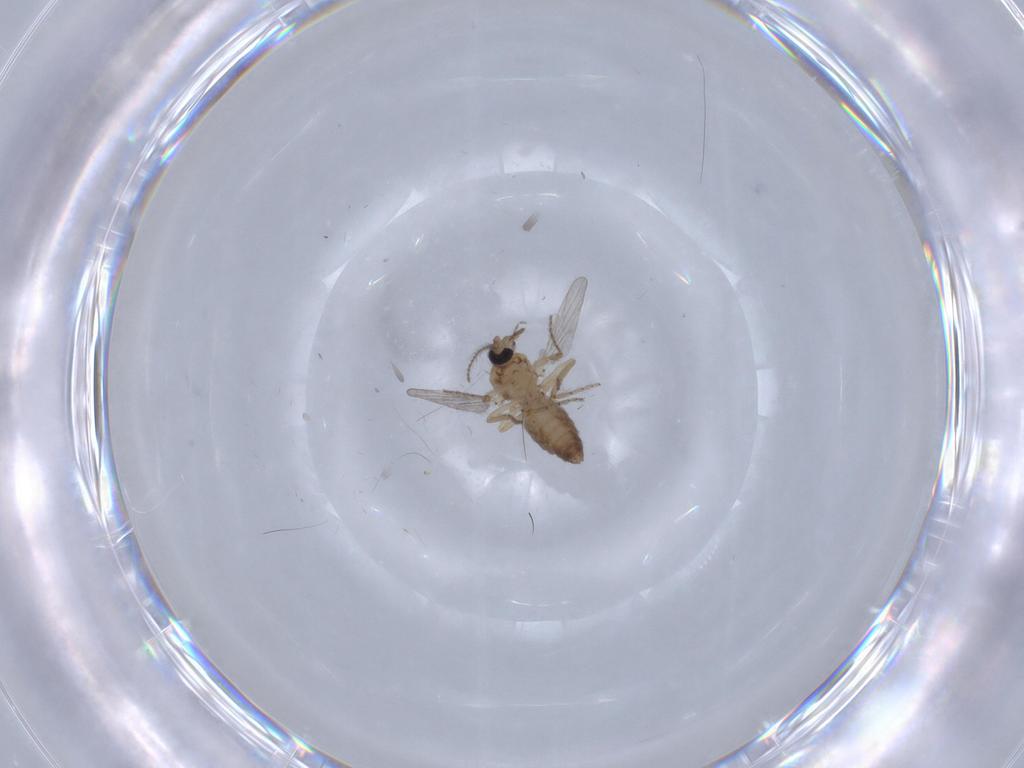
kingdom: Animalia
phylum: Arthropoda
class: Insecta
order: Diptera
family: Ceratopogonidae
